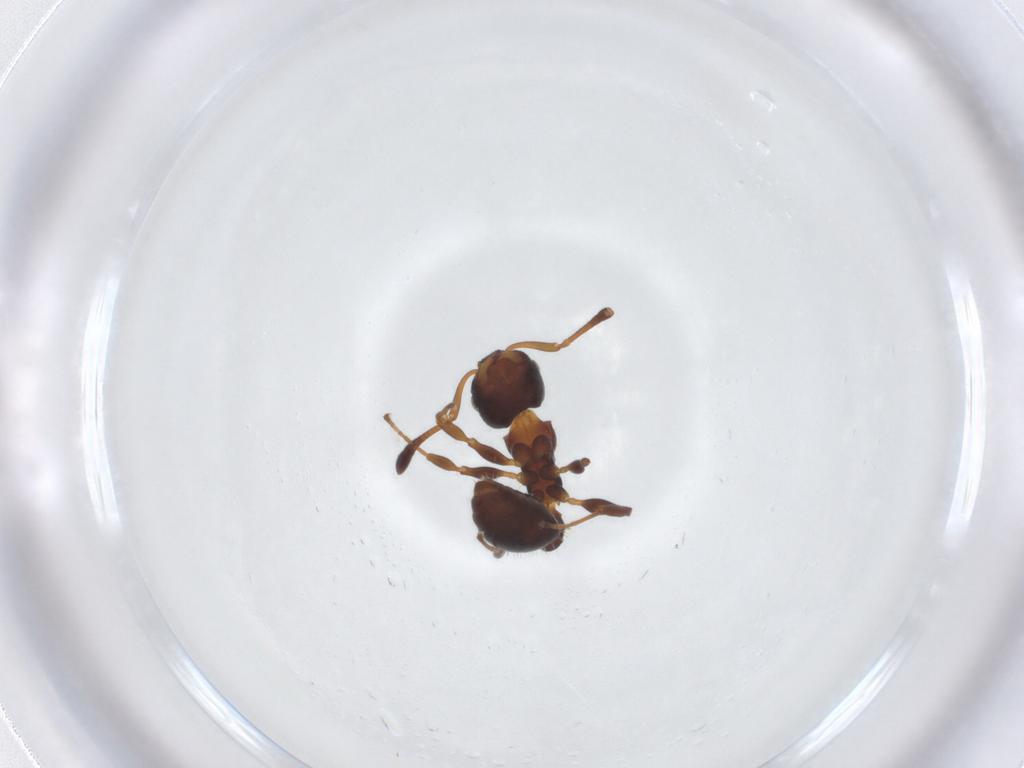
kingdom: Animalia
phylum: Arthropoda
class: Insecta
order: Hymenoptera
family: Formicidae
